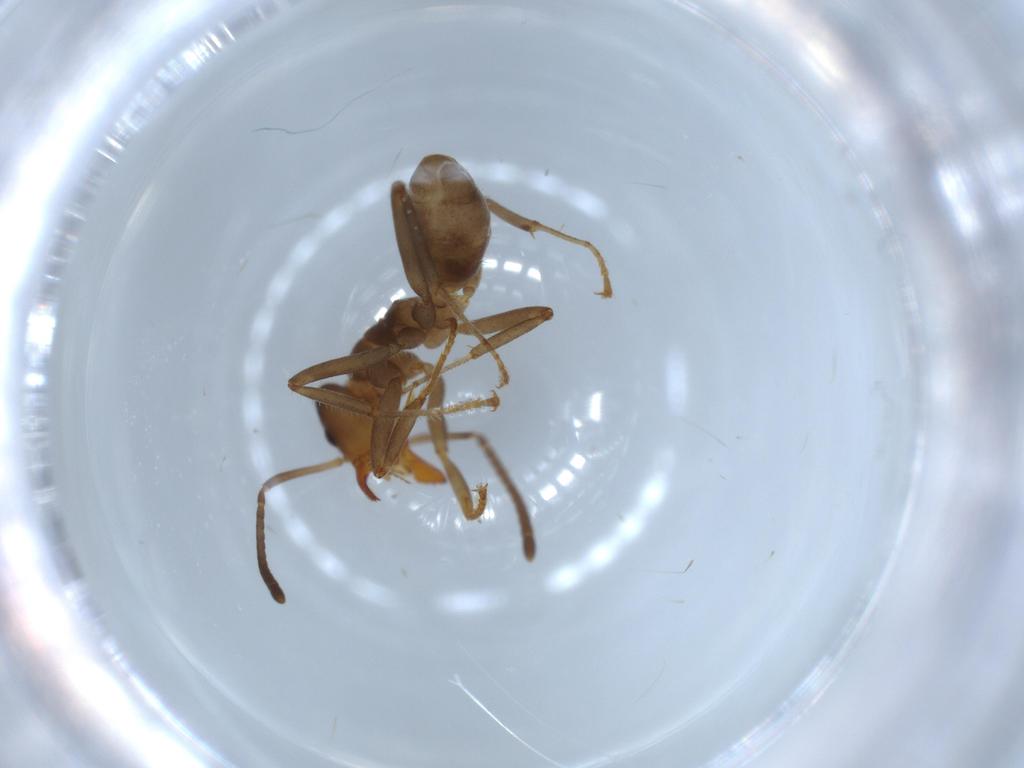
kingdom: Animalia
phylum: Arthropoda
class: Insecta
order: Hymenoptera
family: Formicidae
